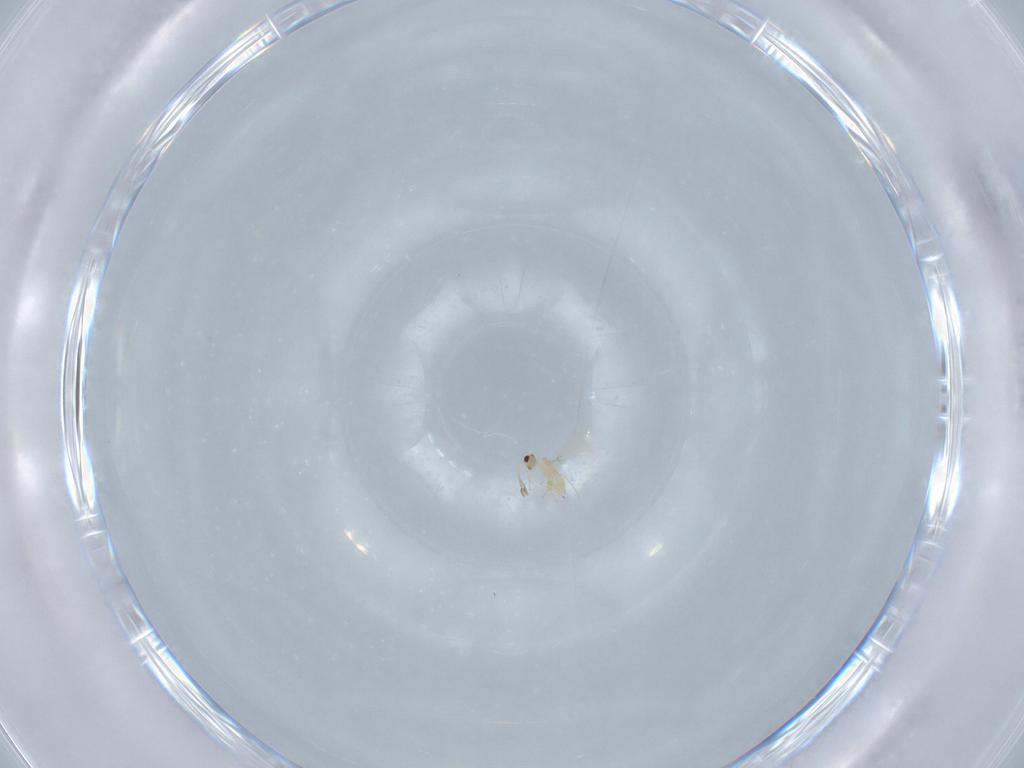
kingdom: Animalia
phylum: Arthropoda
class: Insecta
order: Hymenoptera
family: Mymaridae
